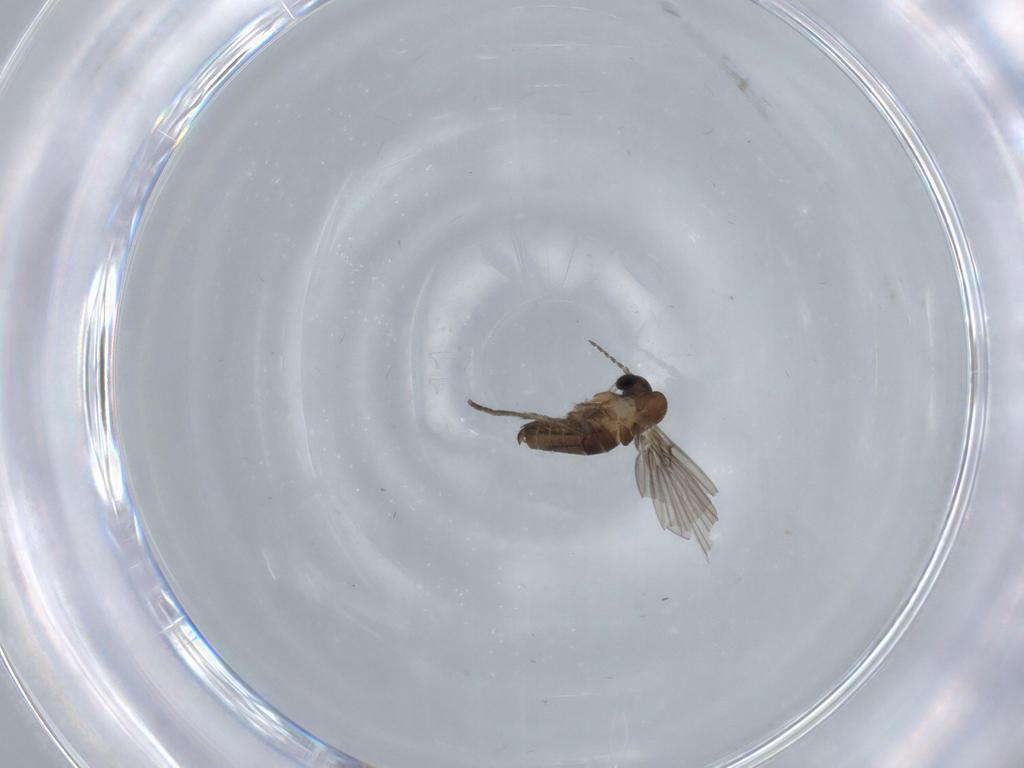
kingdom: Animalia
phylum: Arthropoda
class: Insecta
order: Diptera
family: Psychodidae
